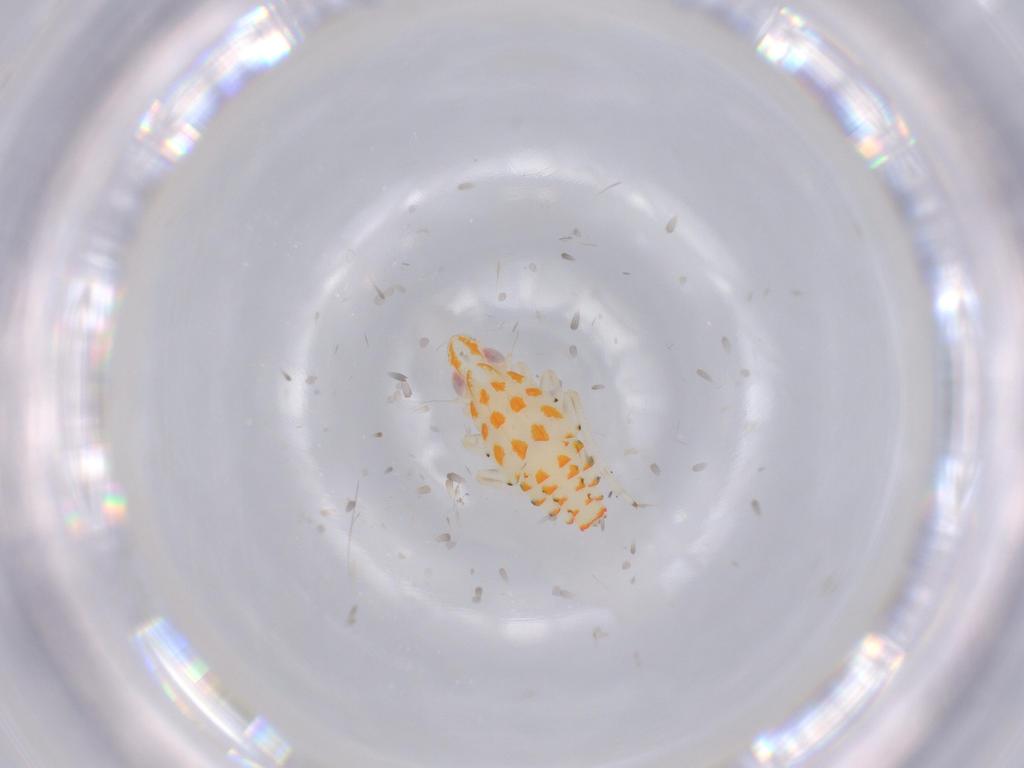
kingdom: Animalia
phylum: Arthropoda
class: Insecta
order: Hemiptera
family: Tropiduchidae
